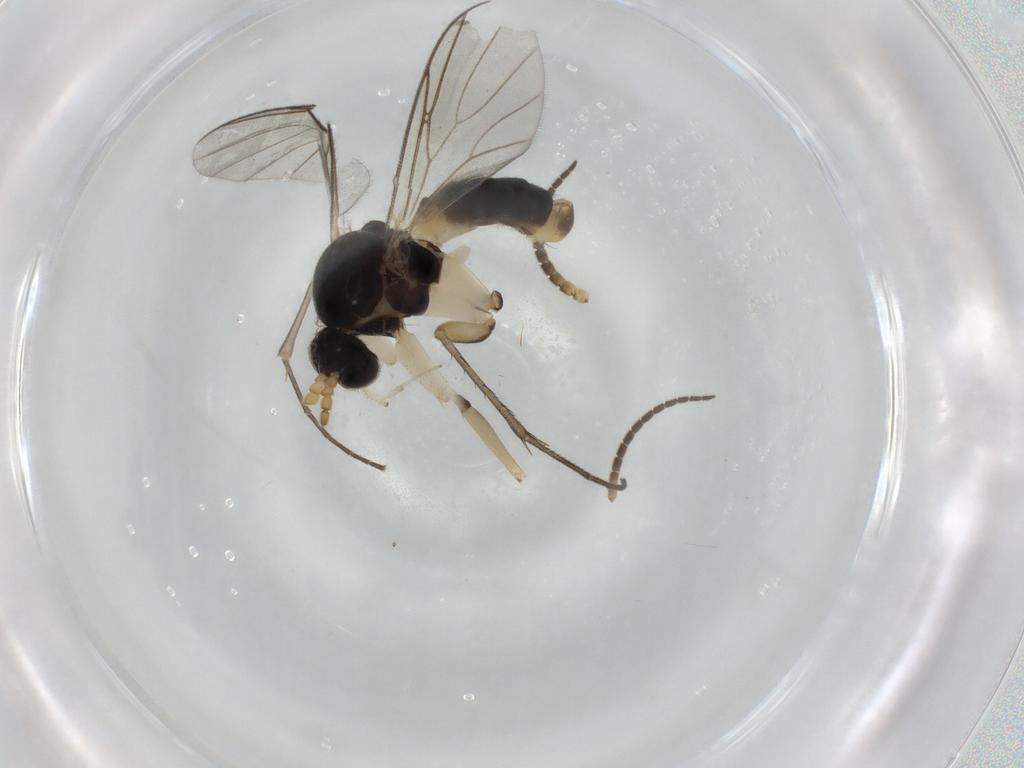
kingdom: Animalia
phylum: Arthropoda
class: Insecta
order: Diptera
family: Mycetophilidae
